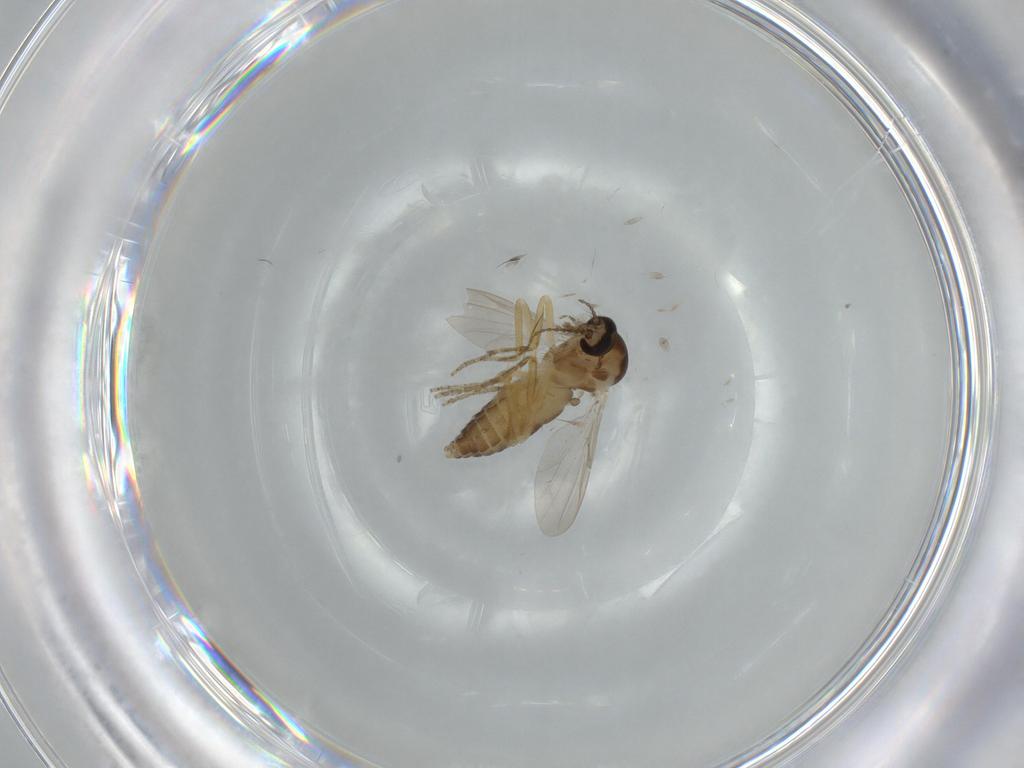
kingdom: Animalia
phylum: Arthropoda
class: Insecta
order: Diptera
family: Ceratopogonidae
